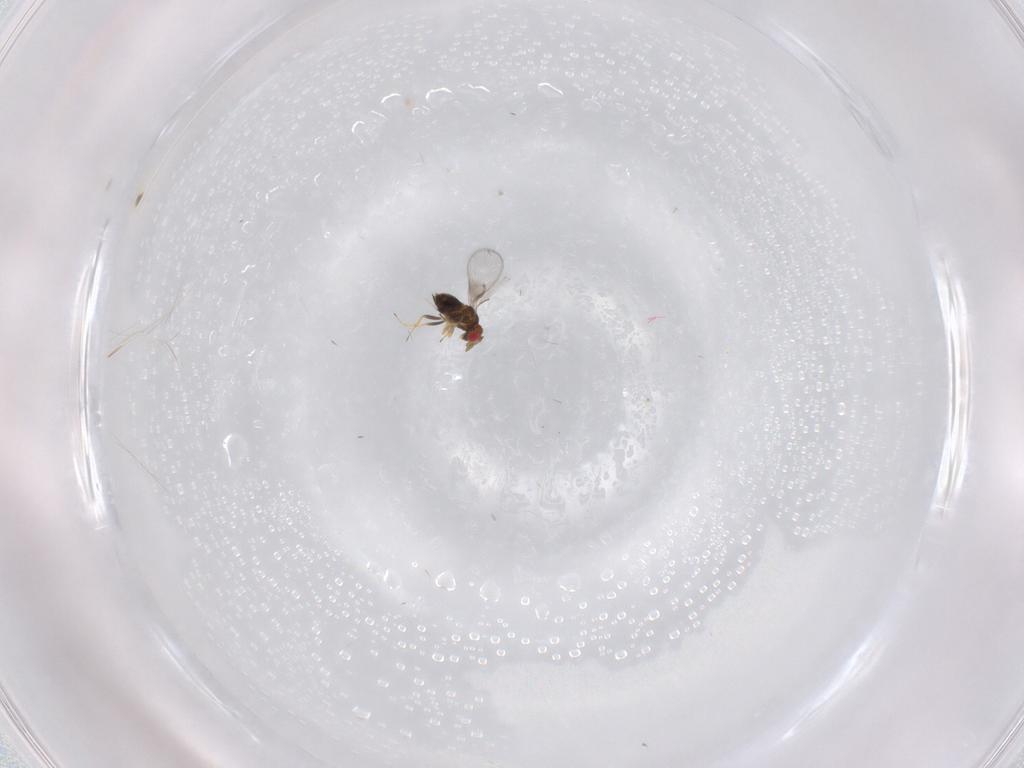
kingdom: Animalia
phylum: Arthropoda
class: Insecta
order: Hymenoptera
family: Trichogrammatidae
